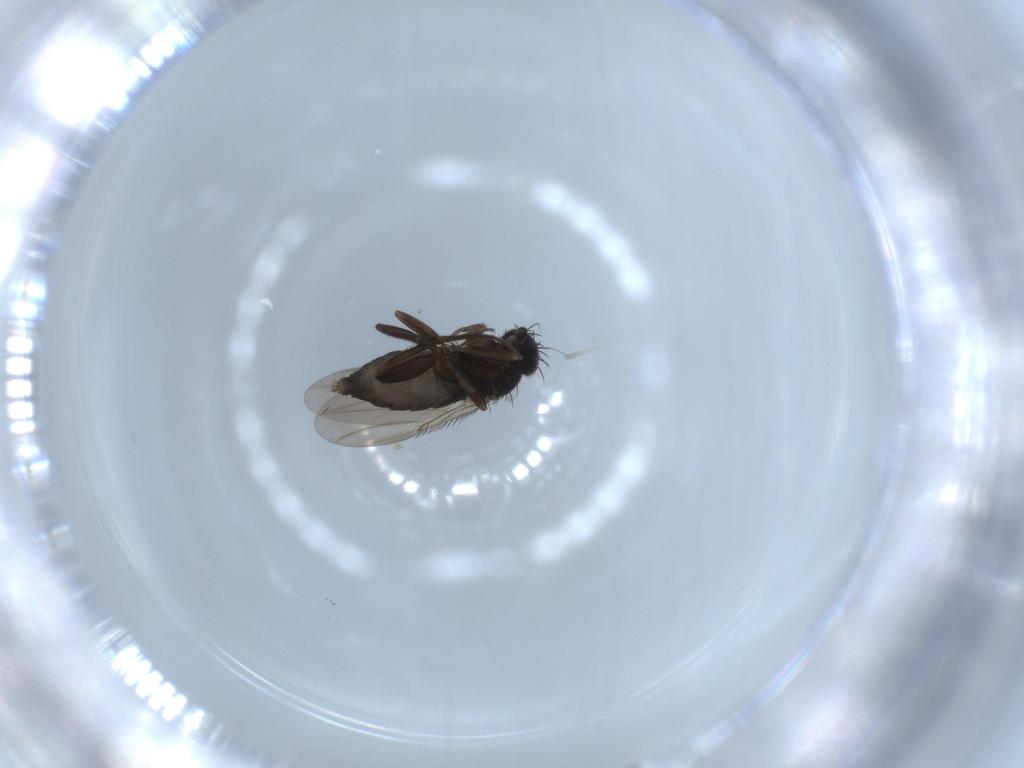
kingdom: Animalia
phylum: Arthropoda
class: Insecta
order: Diptera
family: Phoridae
